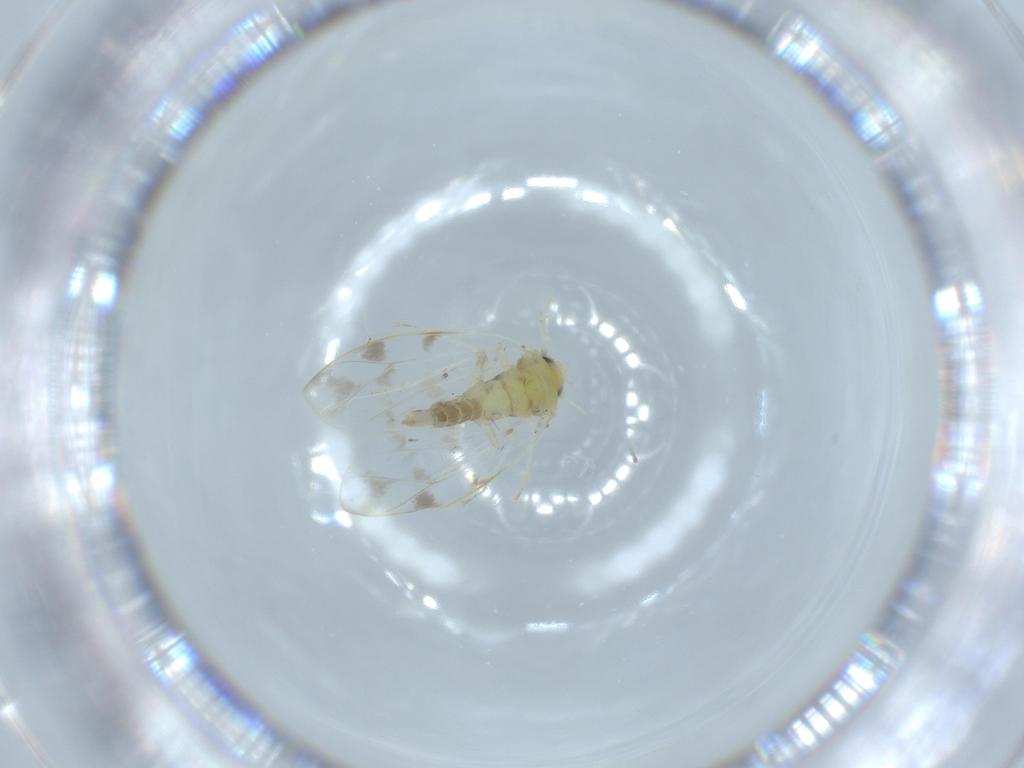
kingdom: Animalia
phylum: Arthropoda
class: Insecta
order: Hemiptera
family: Aleyrodidae
